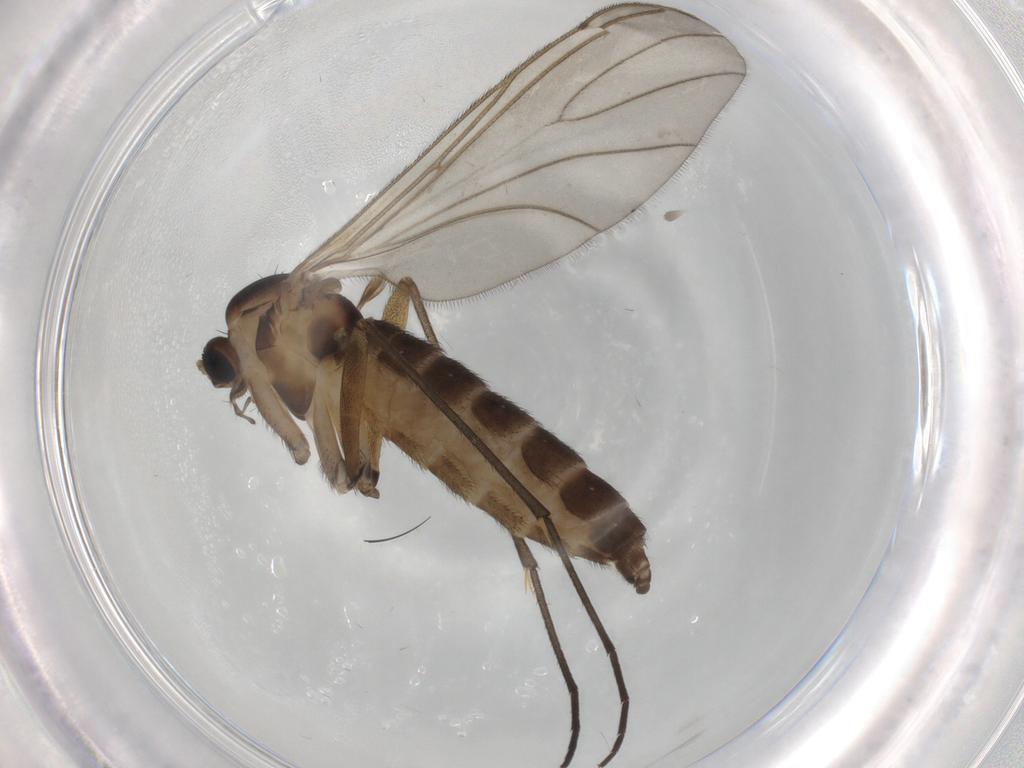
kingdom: Animalia
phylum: Arthropoda
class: Insecta
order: Diptera
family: Sciaridae
